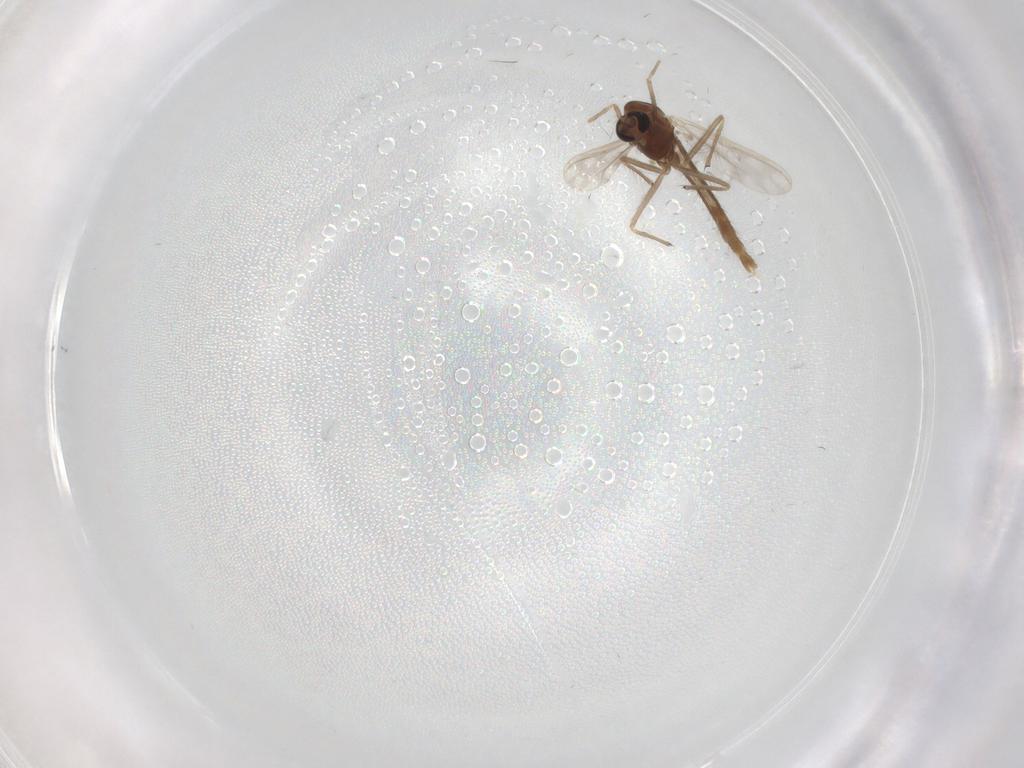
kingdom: Animalia
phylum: Arthropoda
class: Insecta
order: Diptera
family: Chironomidae
